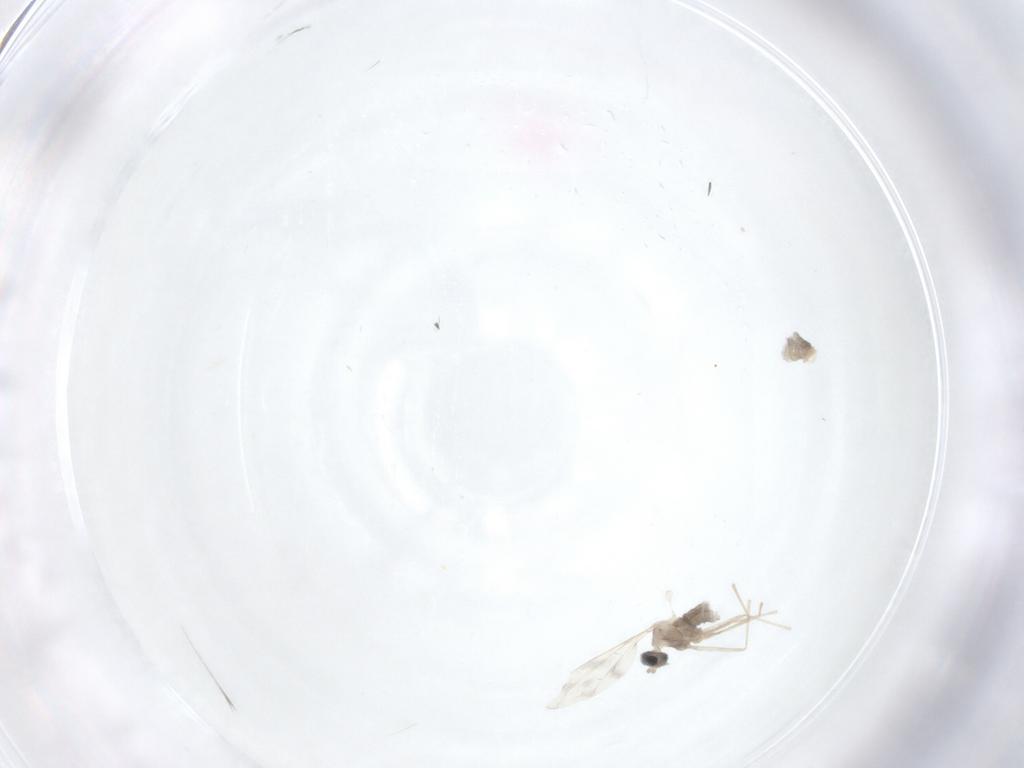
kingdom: Animalia
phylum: Arthropoda
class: Insecta
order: Diptera
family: Cecidomyiidae
